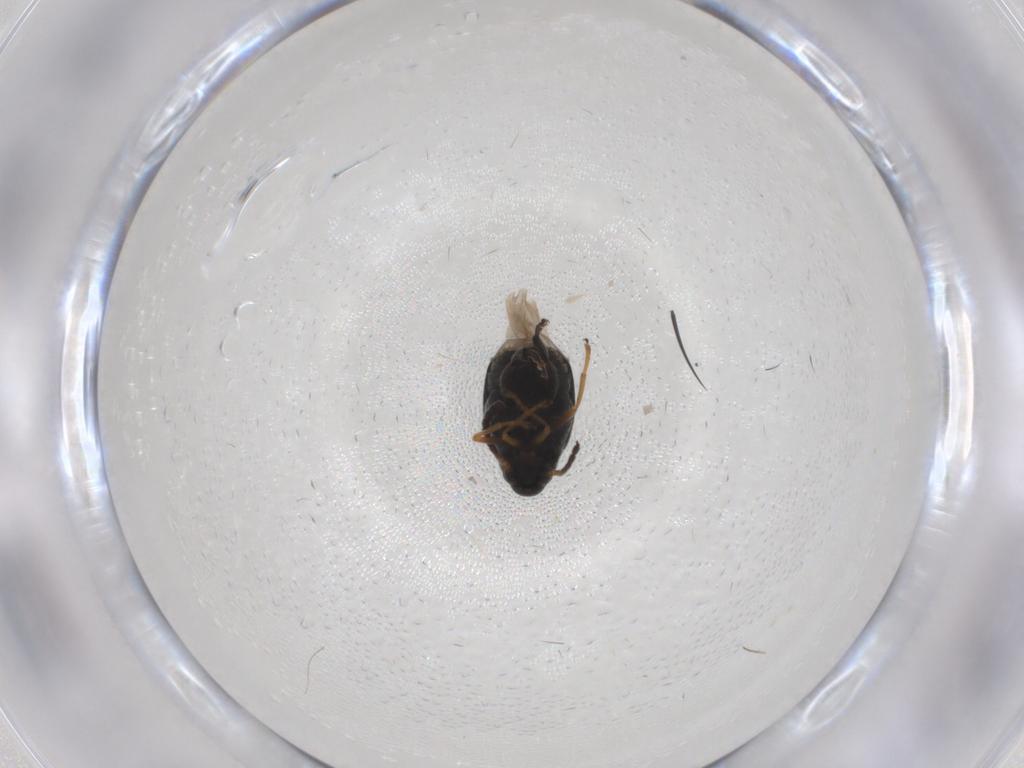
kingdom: Animalia
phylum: Arthropoda
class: Insecta
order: Coleoptera
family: Chrysomelidae
